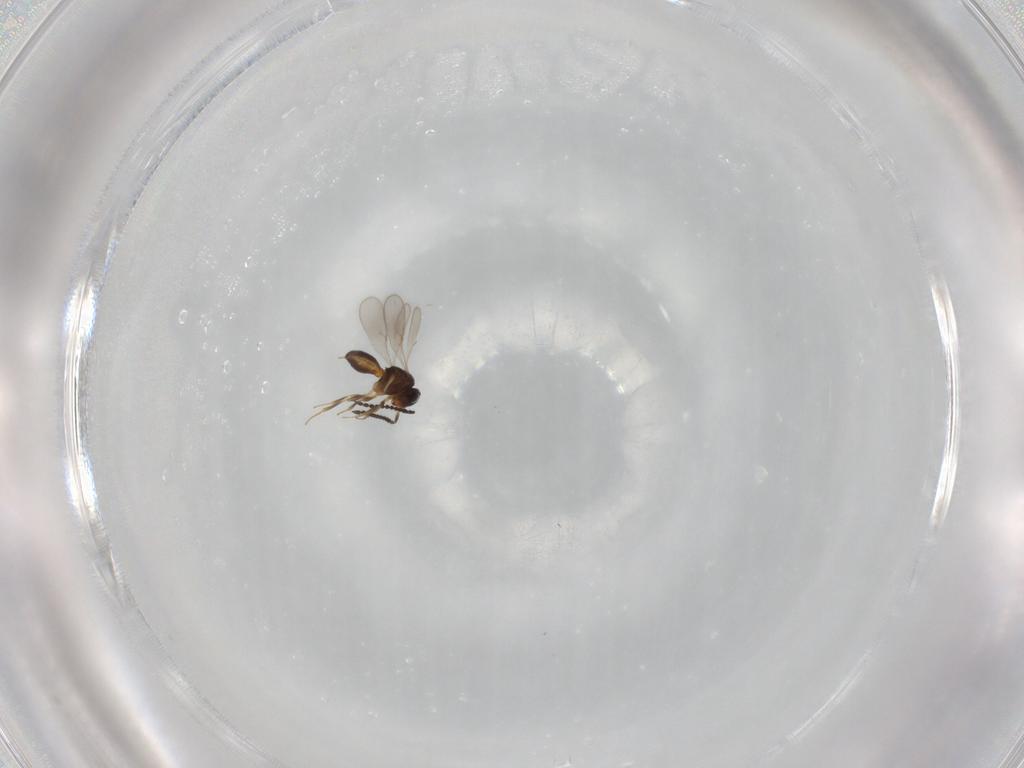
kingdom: Animalia
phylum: Arthropoda
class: Insecta
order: Hymenoptera
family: Scelionidae
